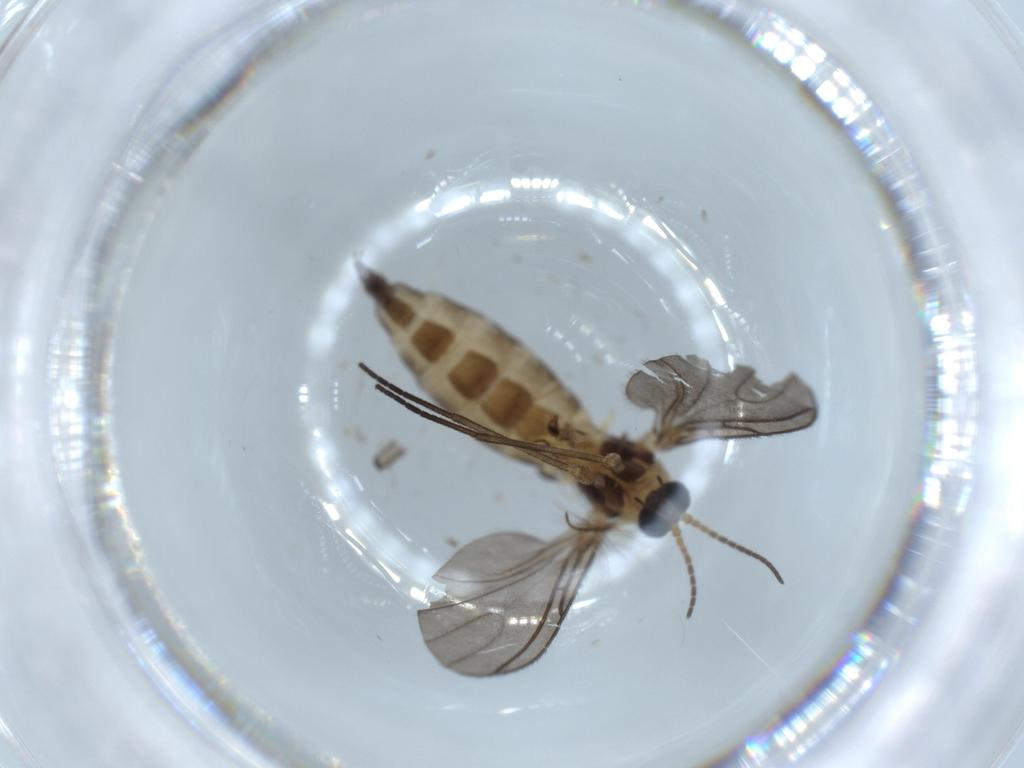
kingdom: Animalia
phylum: Arthropoda
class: Insecta
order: Diptera
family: Sciaridae
